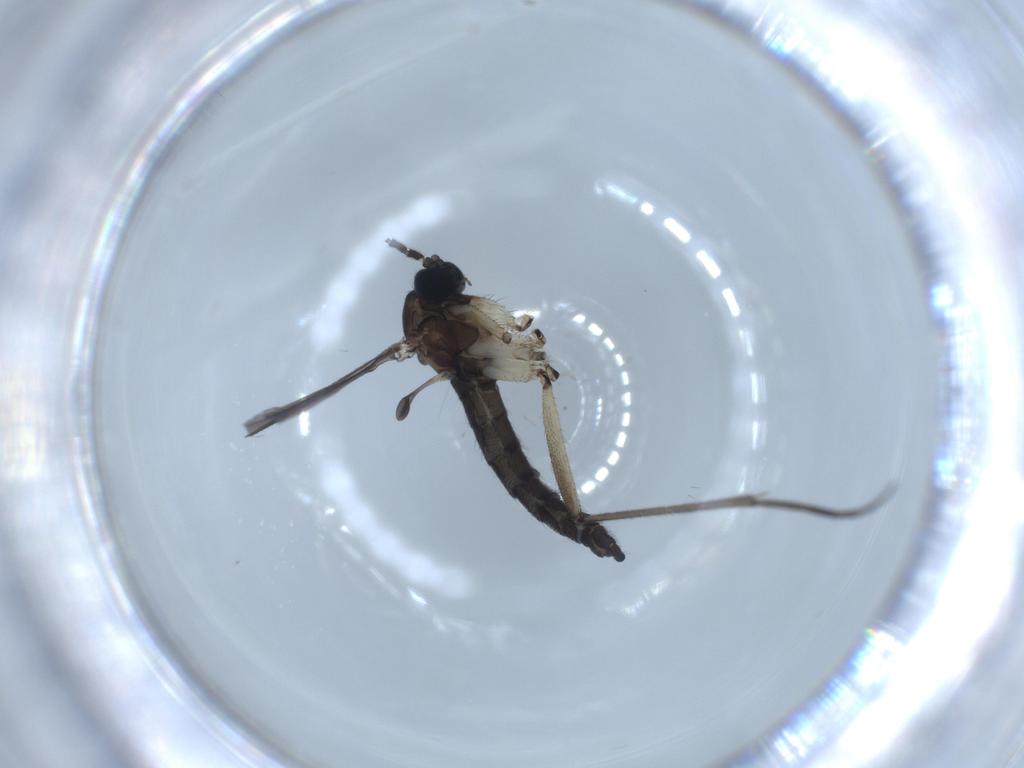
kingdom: Animalia
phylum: Arthropoda
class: Insecta
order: Diptera
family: Sciaridae
